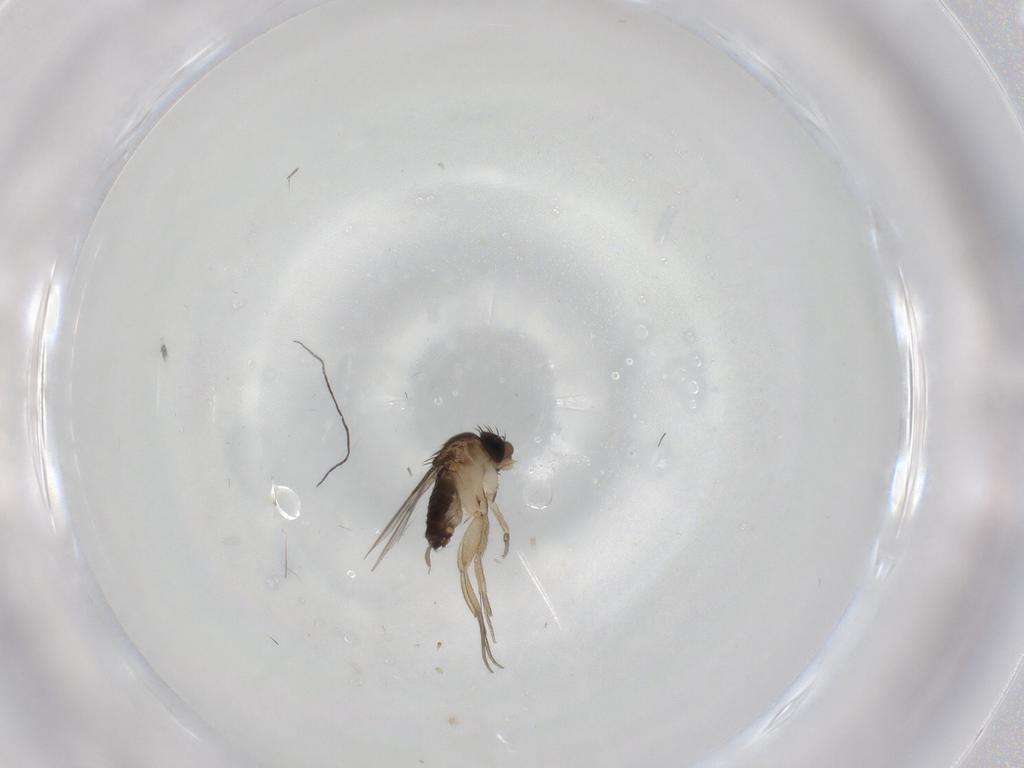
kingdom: Animalia
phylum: Arthropoda
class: Insecta
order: Diptera
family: Phoridae
